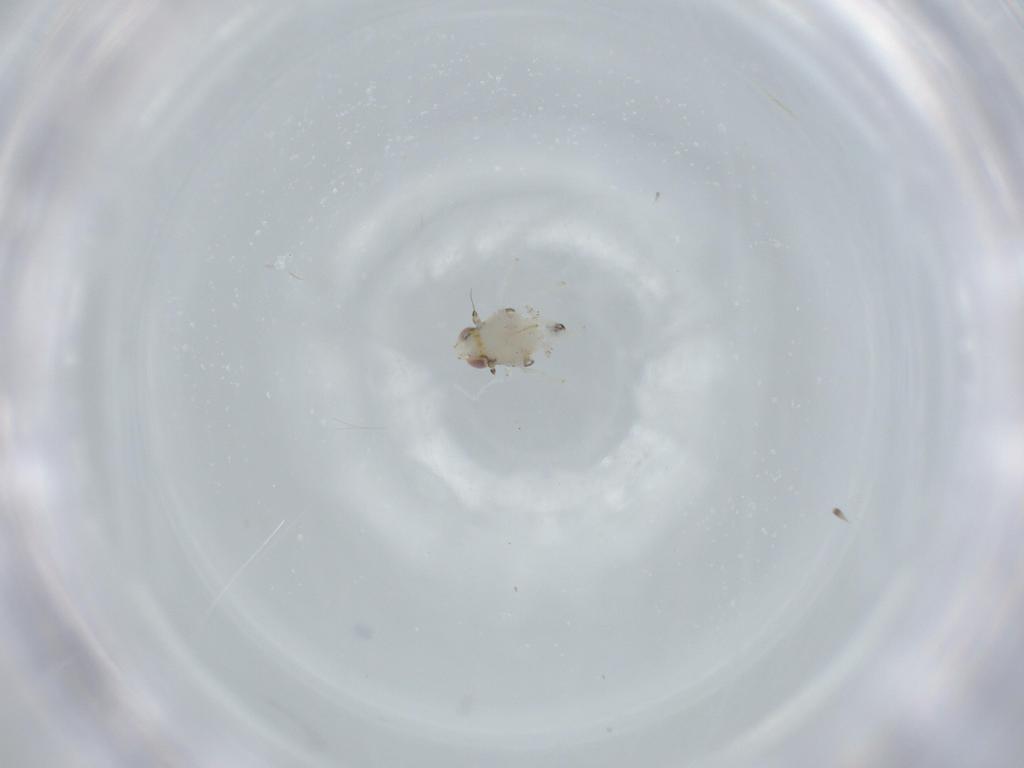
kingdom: Animalia
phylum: Arthropoda
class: Insecta
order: Hemiptera
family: Nogodinidae
